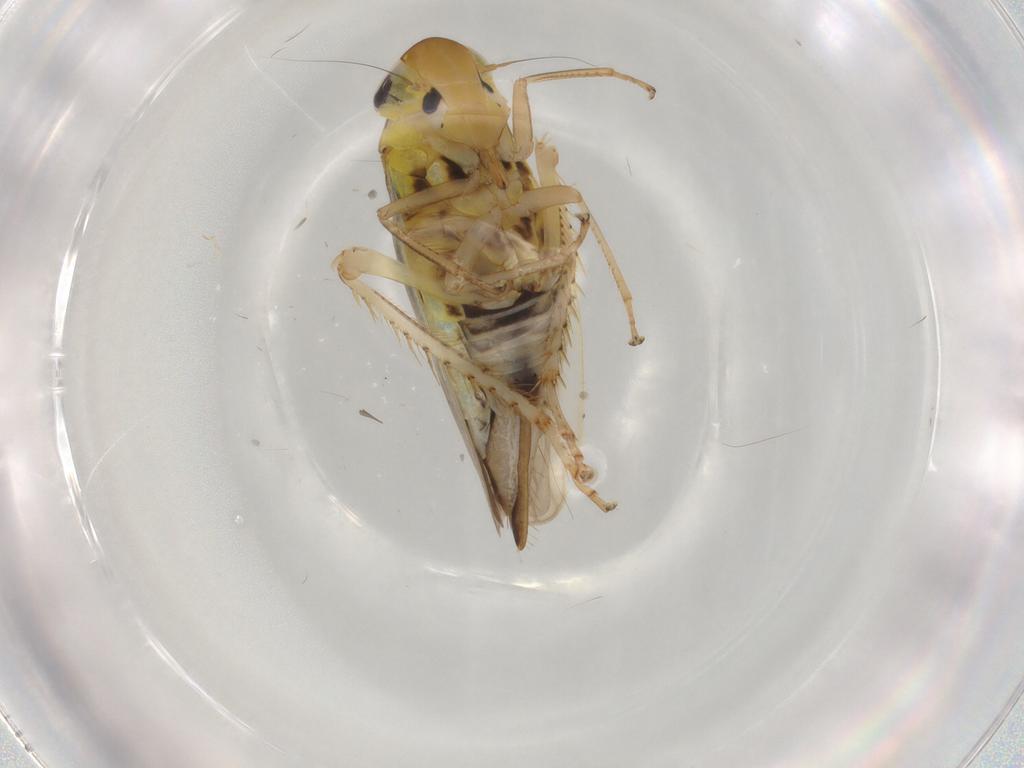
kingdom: Animalia
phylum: Arthropoda
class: Insecta
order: Hemiptera
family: Cicadellidae
